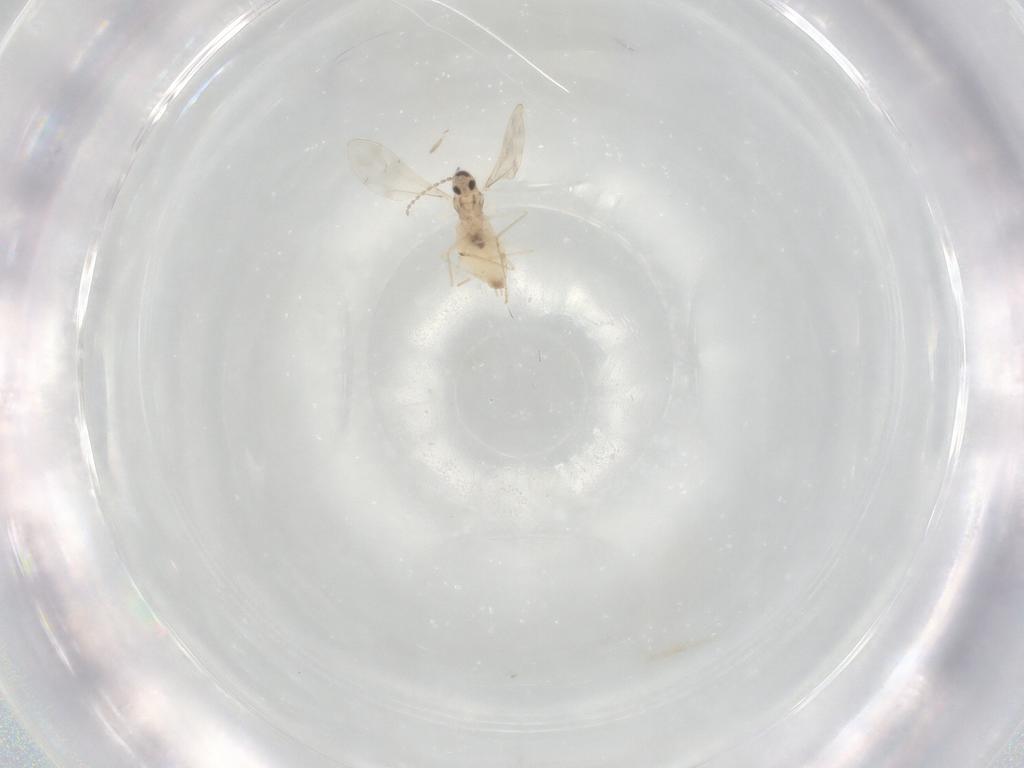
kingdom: Animalia
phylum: Arthropoda
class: Insecta
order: Diptera
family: Cecidomyiidae
